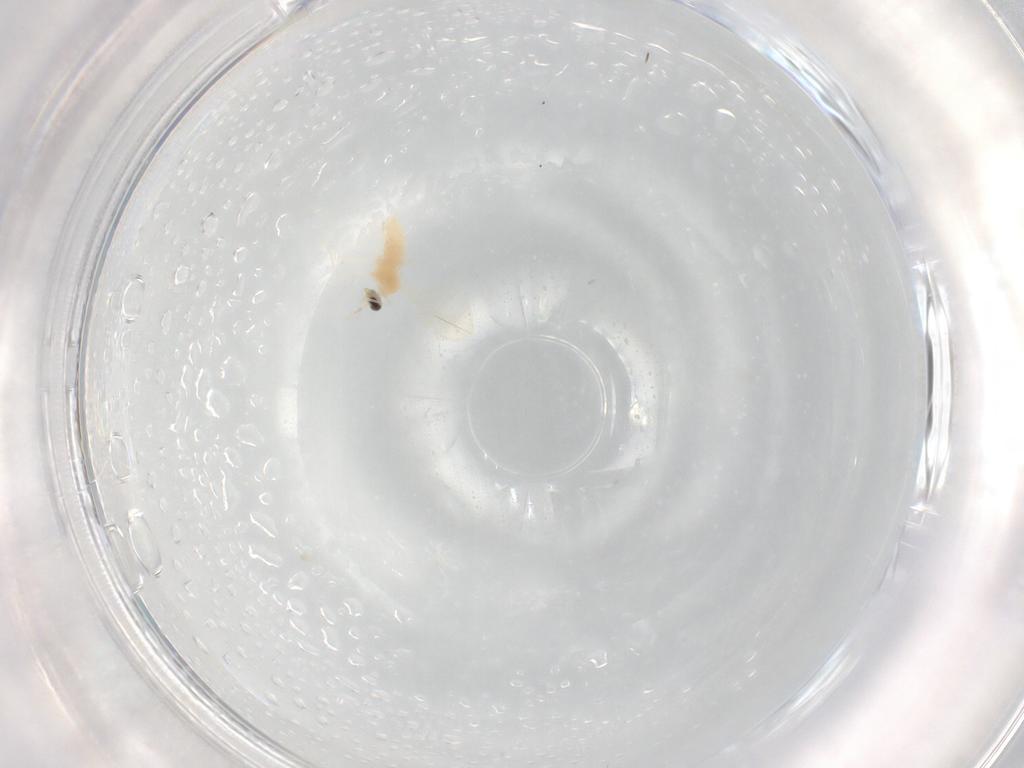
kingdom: Animalia
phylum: Arthropoda
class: Insecta
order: Diptera
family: Cecidomyiidae
